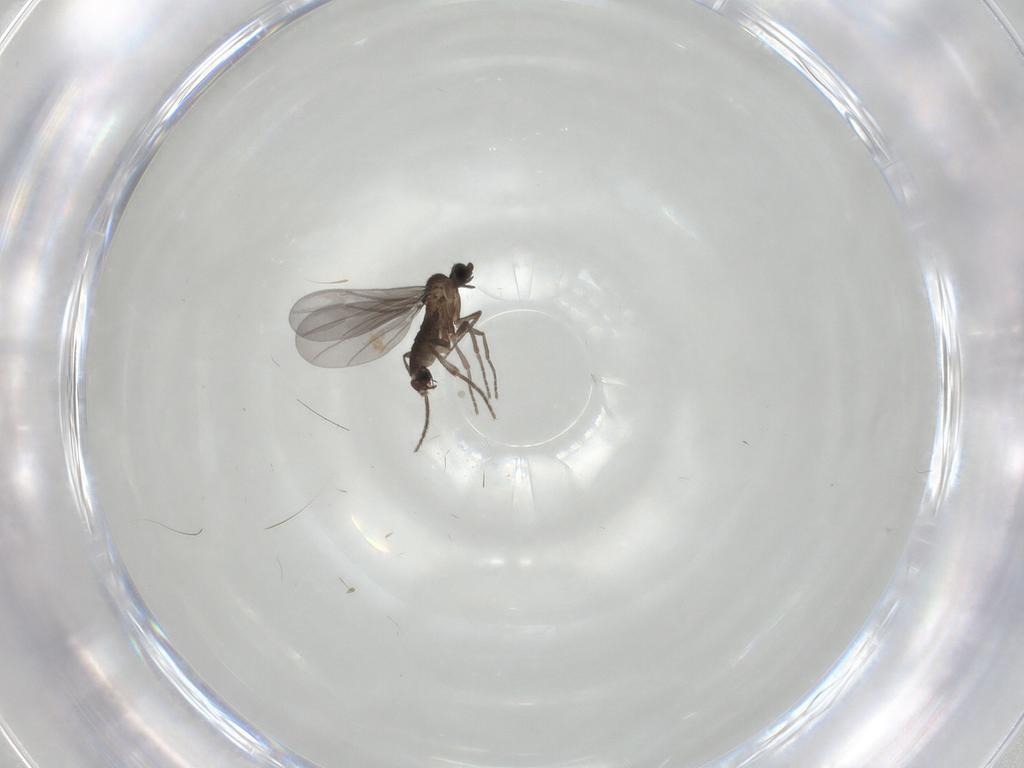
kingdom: Animalia
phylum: Arthropoda
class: Insecta
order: Diptera
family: Phoridae
